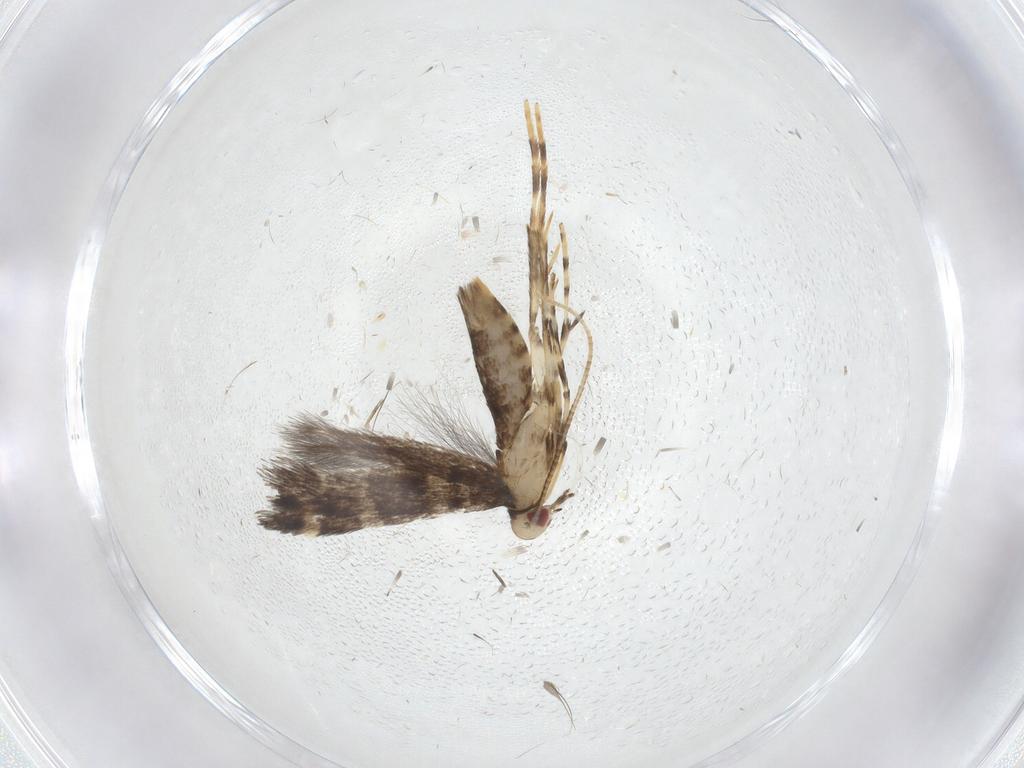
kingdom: Animalia
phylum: Arthropoda
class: Insecta
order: Lepidoptera
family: Gracillariidae
